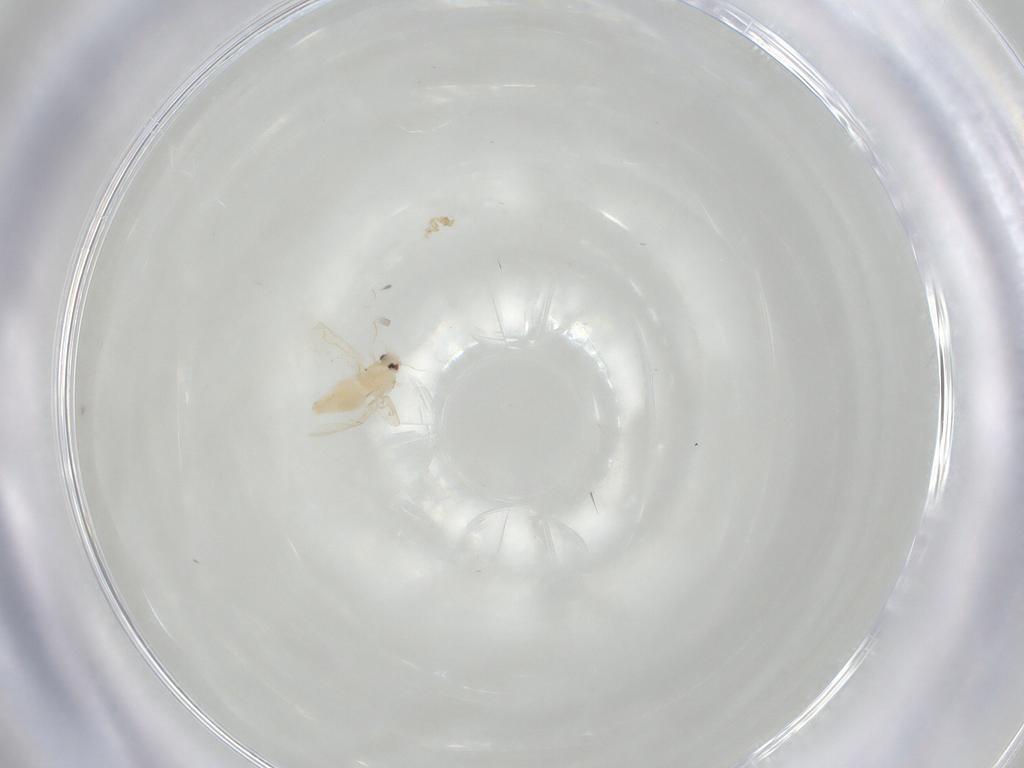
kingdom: Animalia
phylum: Arthropoda
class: Insecta
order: Hemiptera
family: Aleyrodidae
